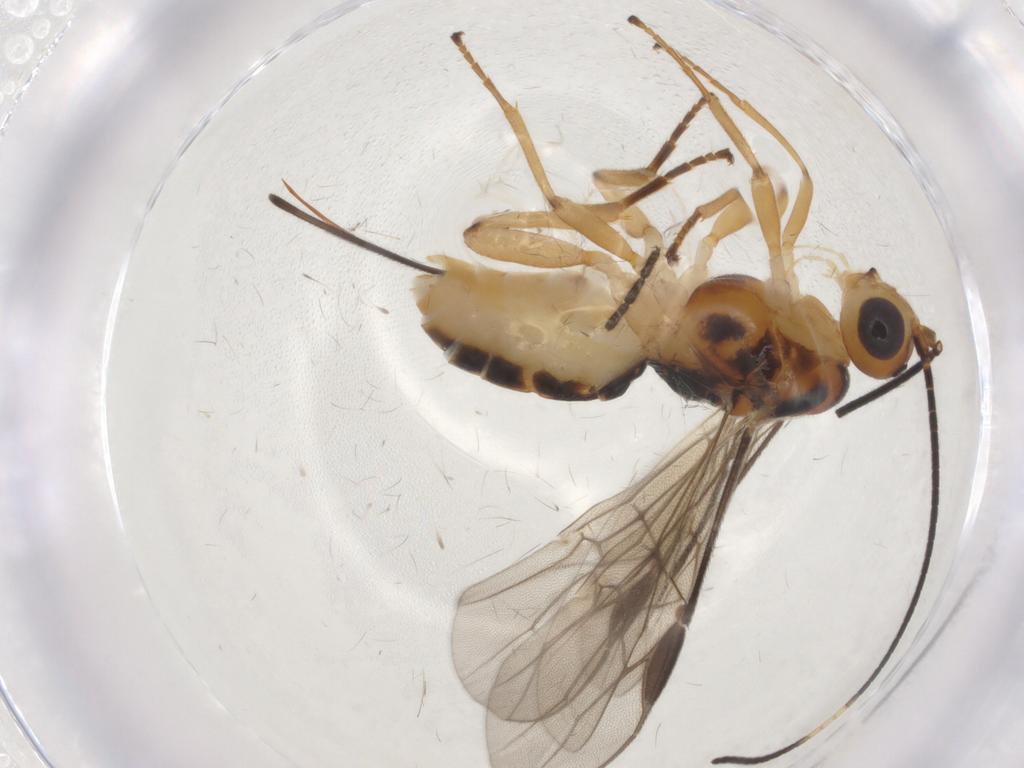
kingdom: Animalia
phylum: Arthropoda
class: Insecta
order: Hymenoptera
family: Braconidae
